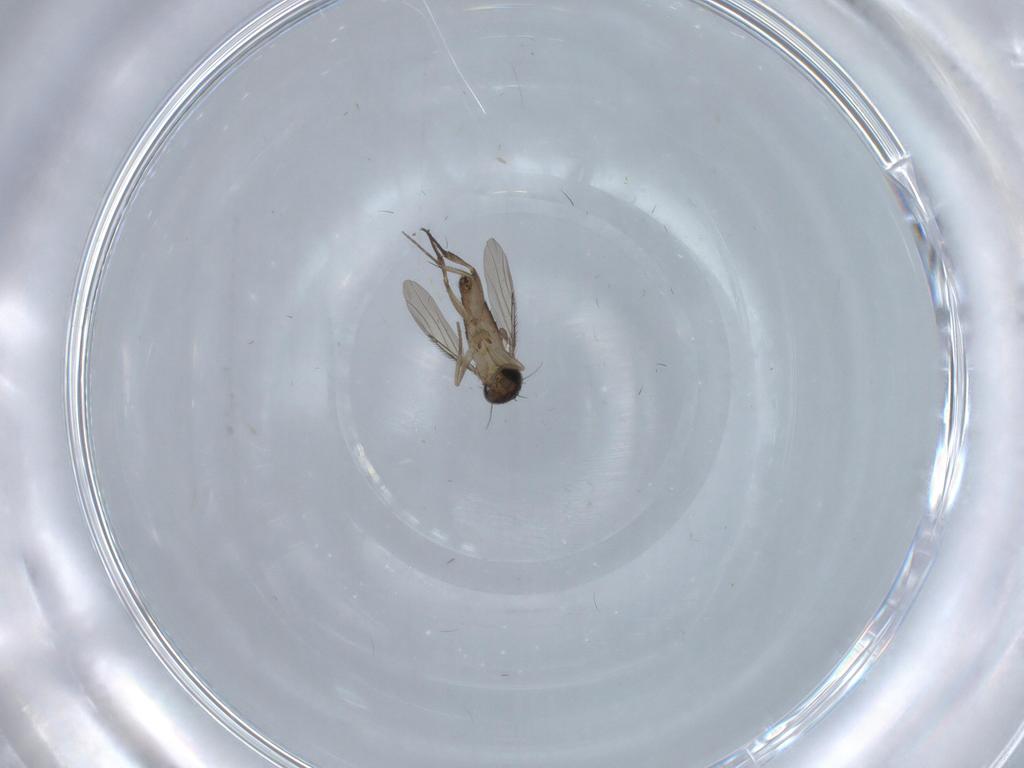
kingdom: Animalia
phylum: Arthropoda
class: Insecta
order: Diptera
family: Phoridae
